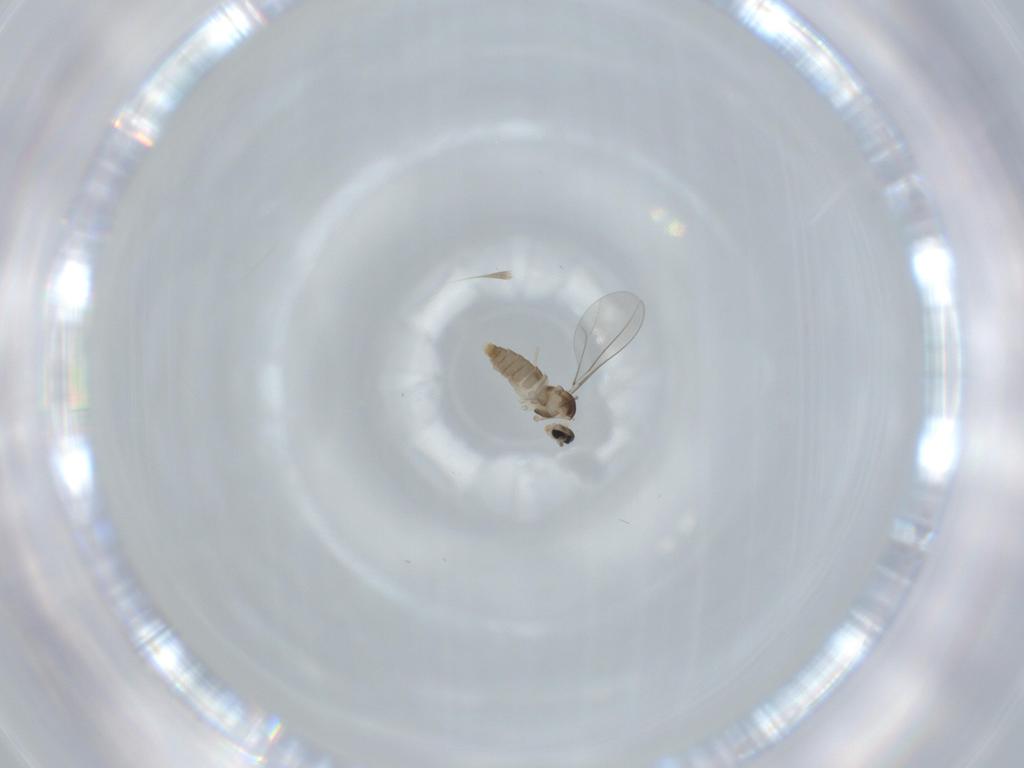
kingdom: Animalia
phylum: Arthropoda
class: Insecta
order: Diptera
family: Cecidomyiidae
